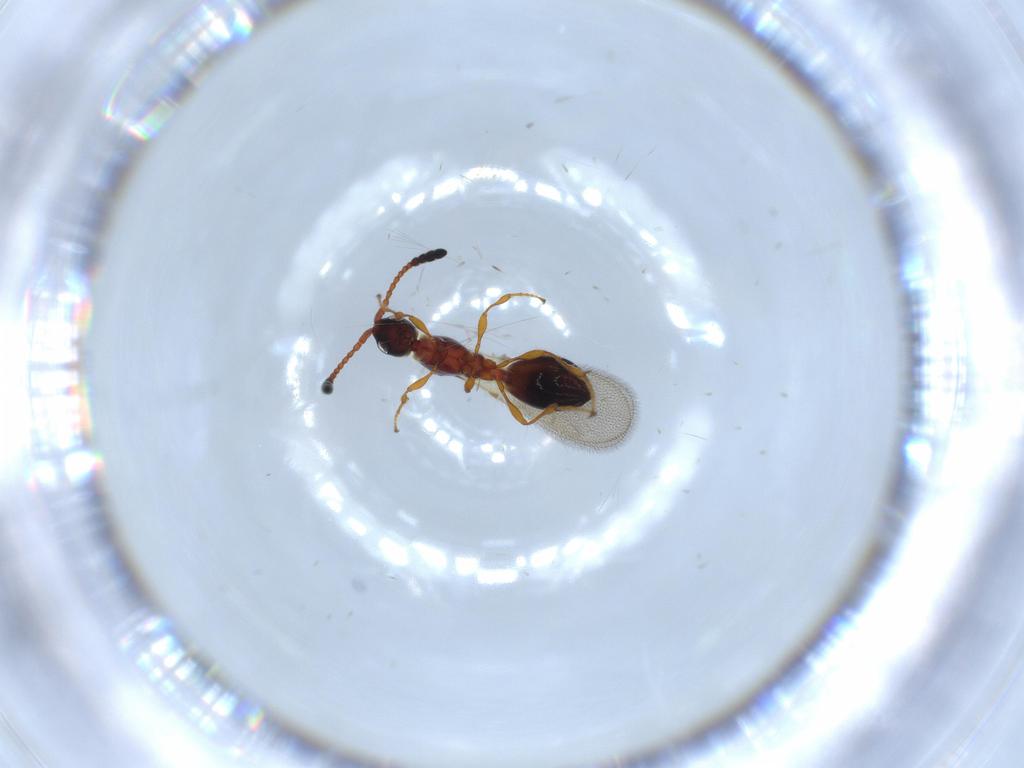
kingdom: Animalia
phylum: Arthropoda
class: Insecta
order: Hymenoptera
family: Diapriidae
